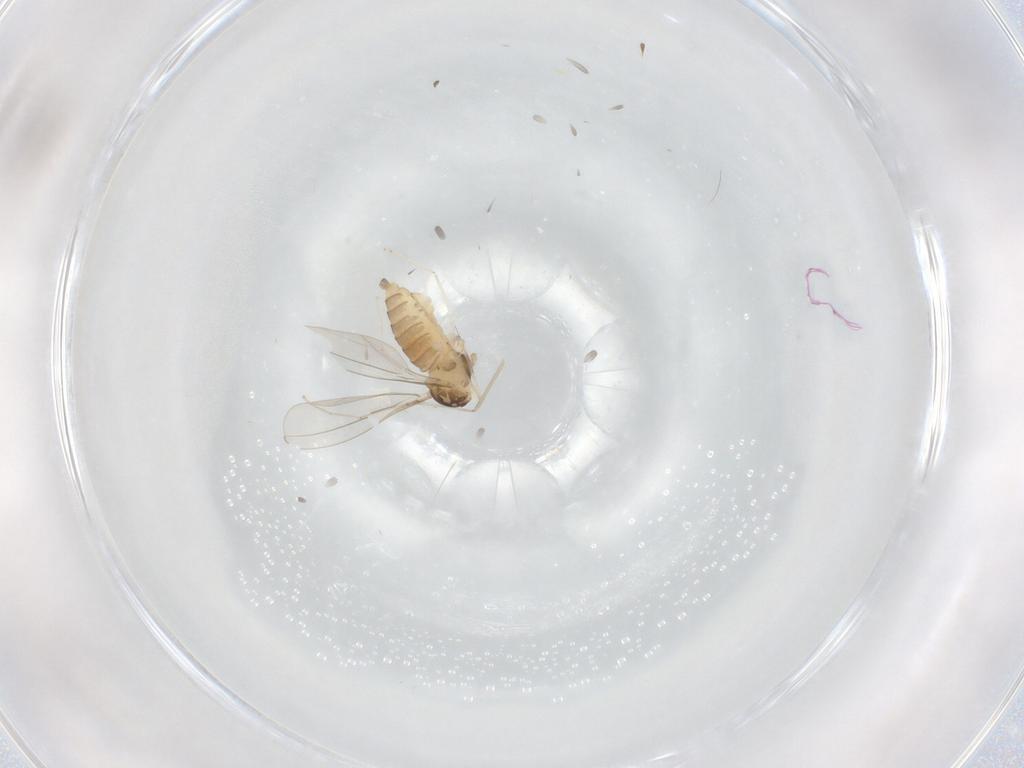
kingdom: Animalia
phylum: Arthropoda
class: Insecta
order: Diptera
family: Cecidomyiidae
